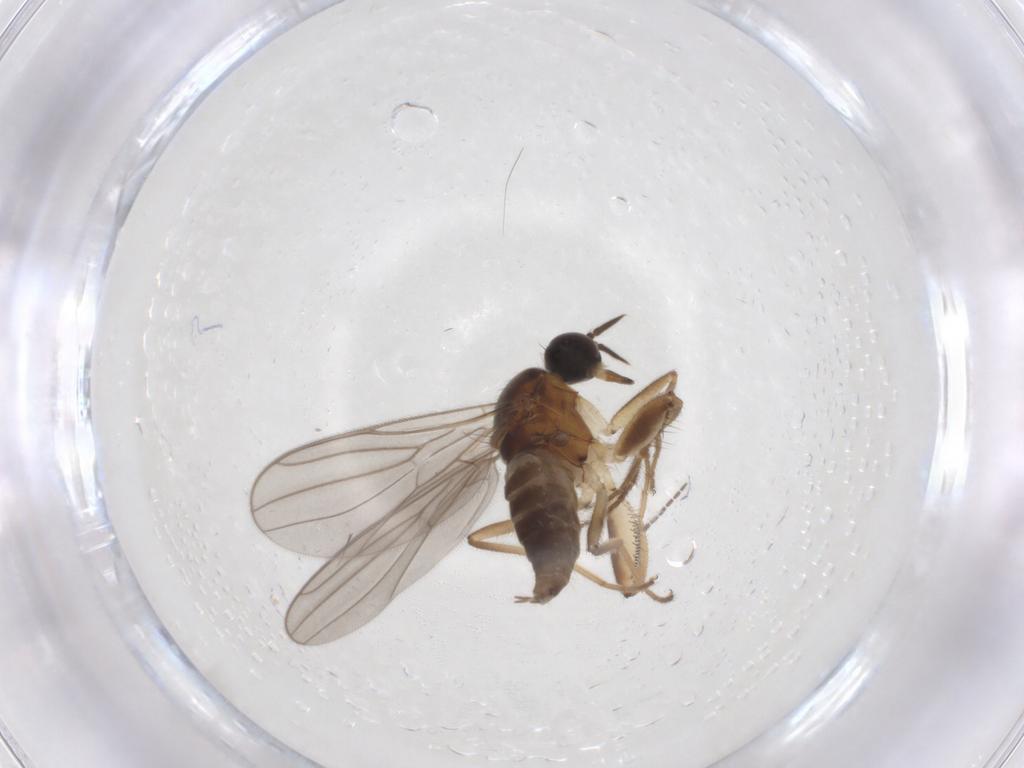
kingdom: Animalia
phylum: Arthropoda
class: Insecta
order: Diptera
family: Hybotidae
